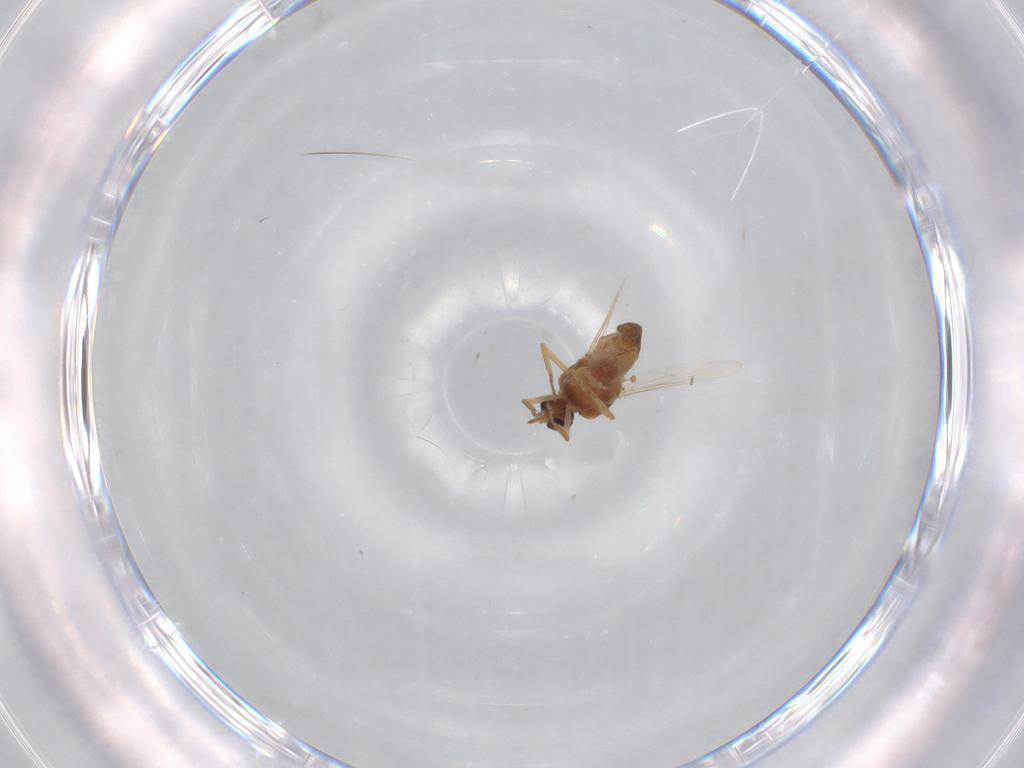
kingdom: Animalia
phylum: Arthropoda
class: Insecta
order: Diptera
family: Ceratopogonidae
